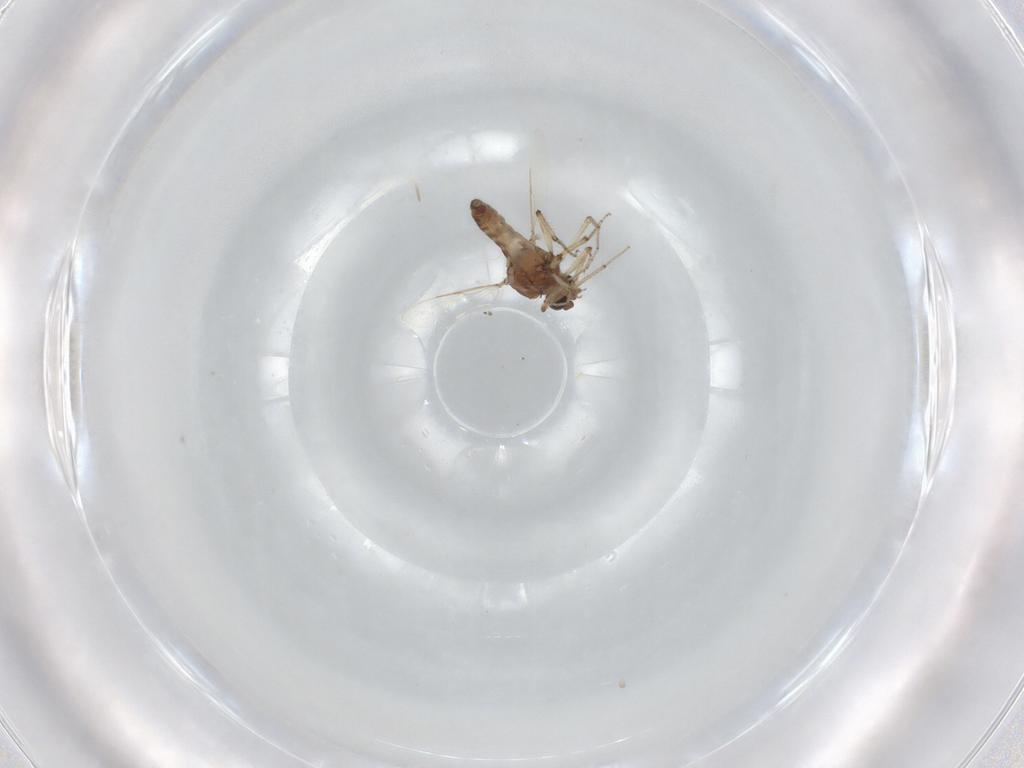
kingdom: Animalia
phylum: Arthropoda
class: Insecta
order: Diptera
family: Ceratopogonidae
